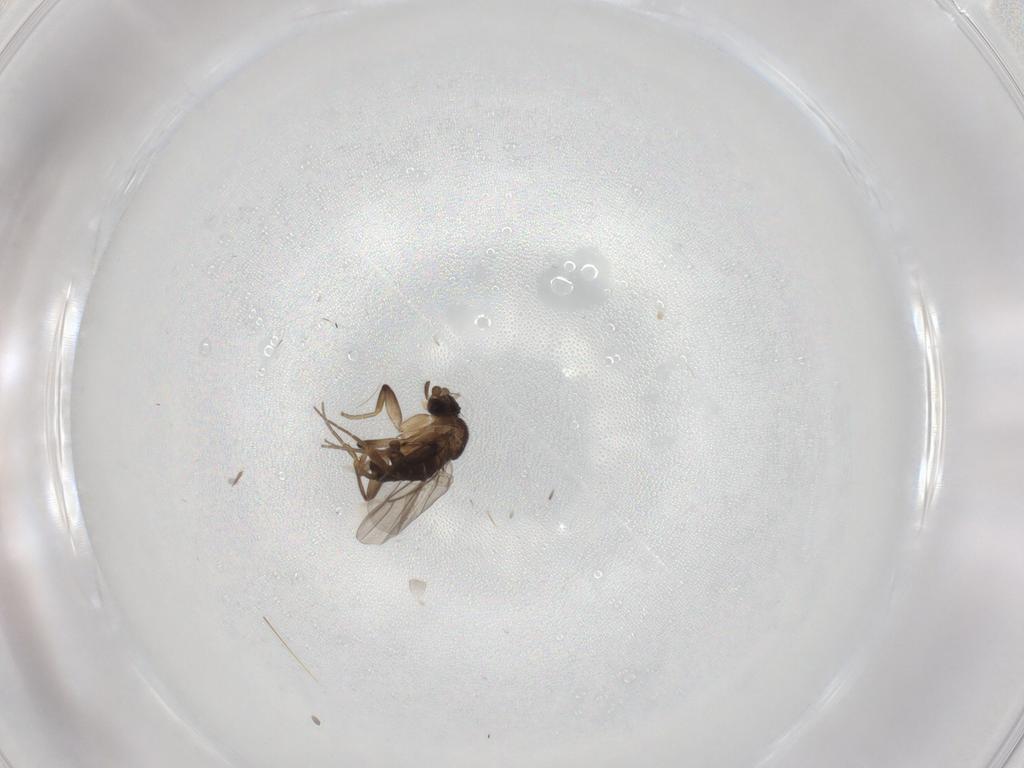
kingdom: Animalia
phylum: Arthropoda
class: Insecta
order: Diptera
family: Phoridae
